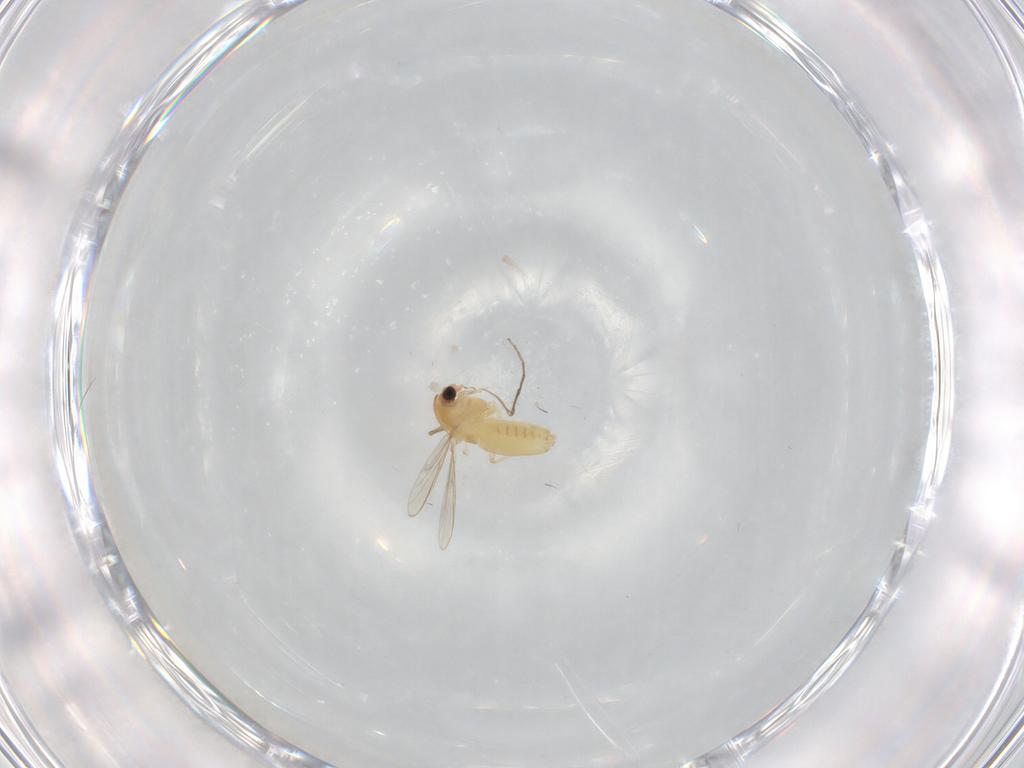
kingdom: Animalia
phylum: Arthropoda
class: Insecta
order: Diptera
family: Chironomidae
